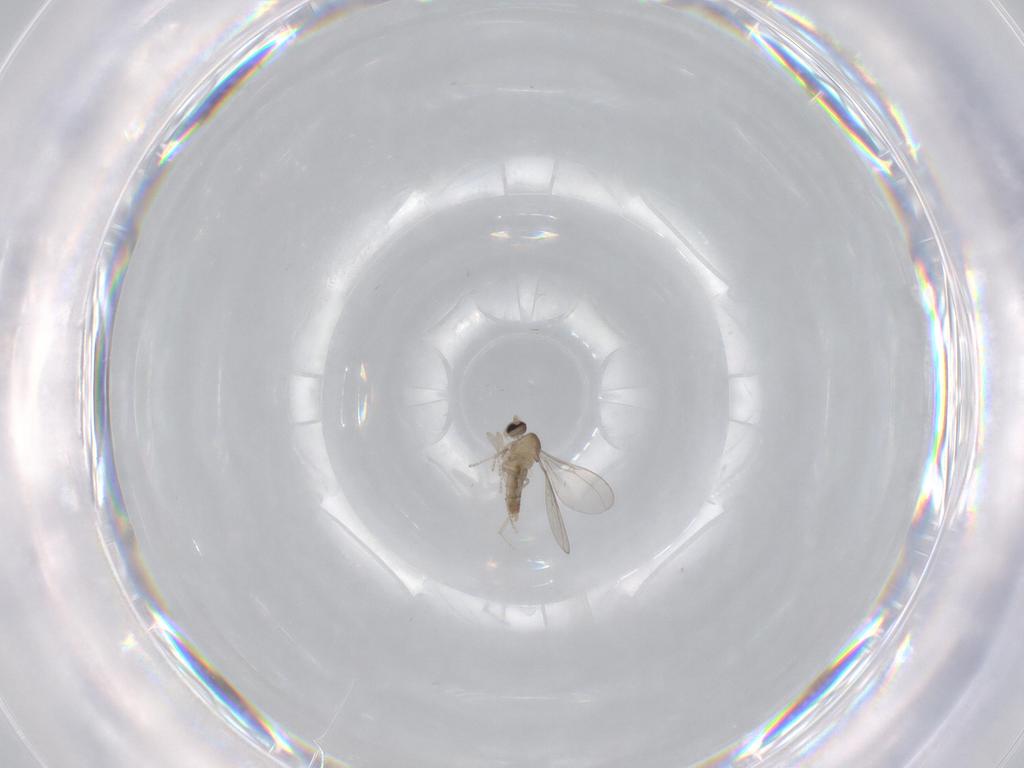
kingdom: Animalia
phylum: Arthropoda
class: Insecta
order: Diptera
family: Cecidomyiidae
